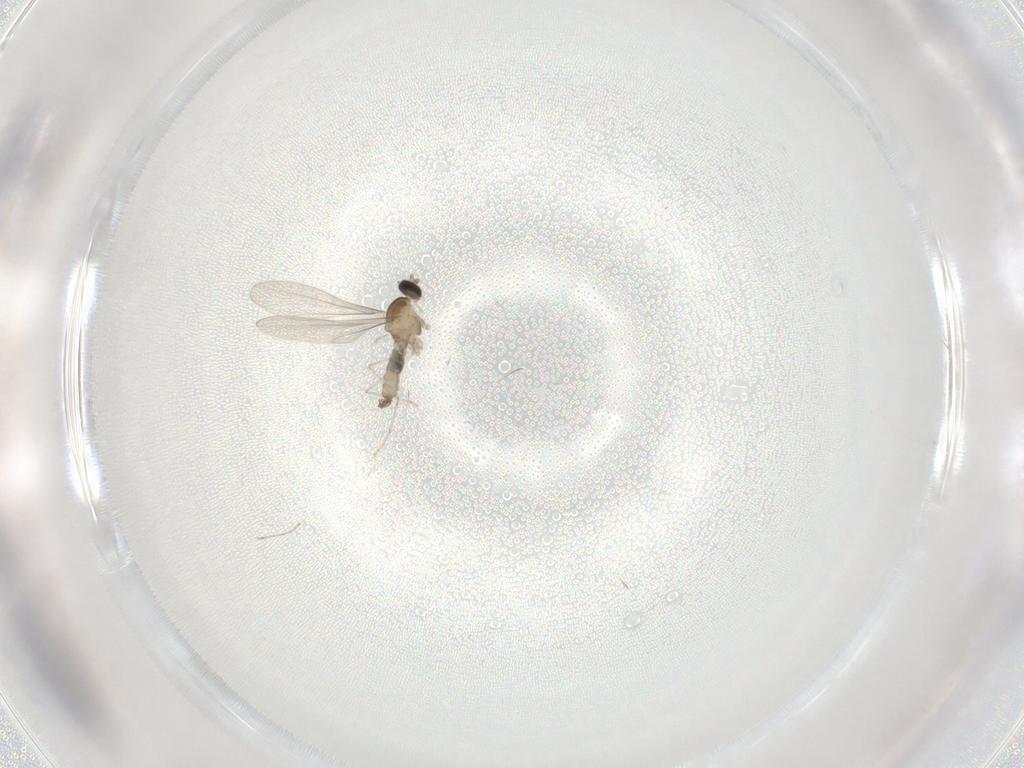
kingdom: Animalia
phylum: Arthropoda
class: Insecta
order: Diptera
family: Cecidomyiidae
